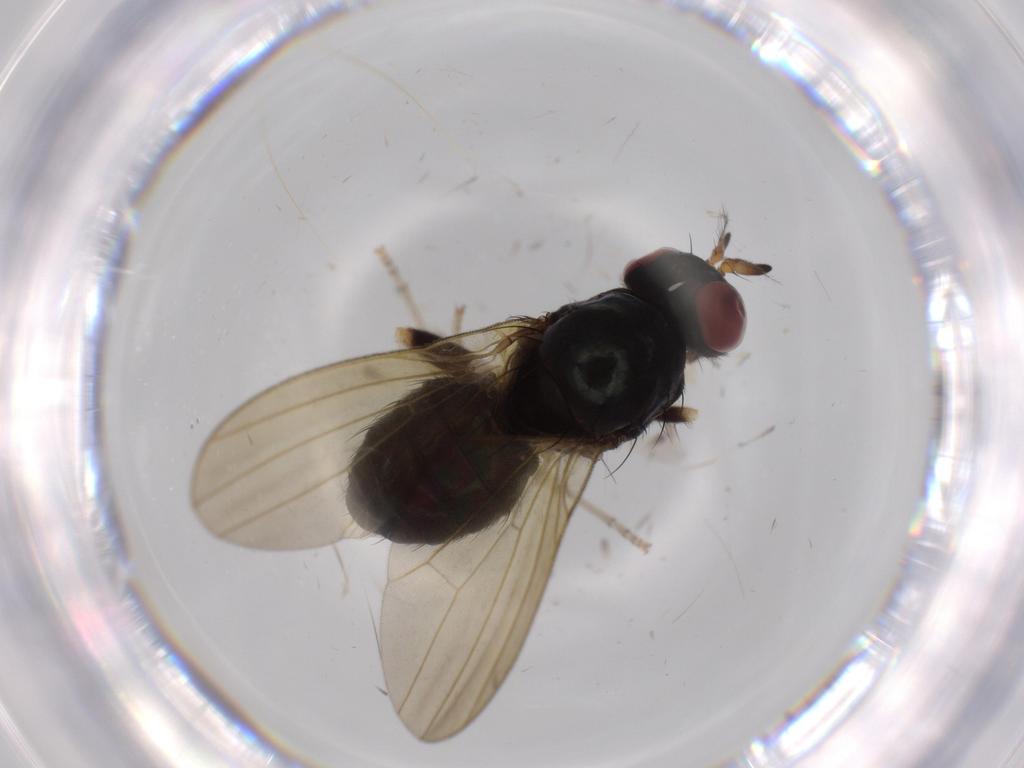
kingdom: Animalia
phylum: Arthropoda
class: Insecta
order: Diptera
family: Lauxaniidae
